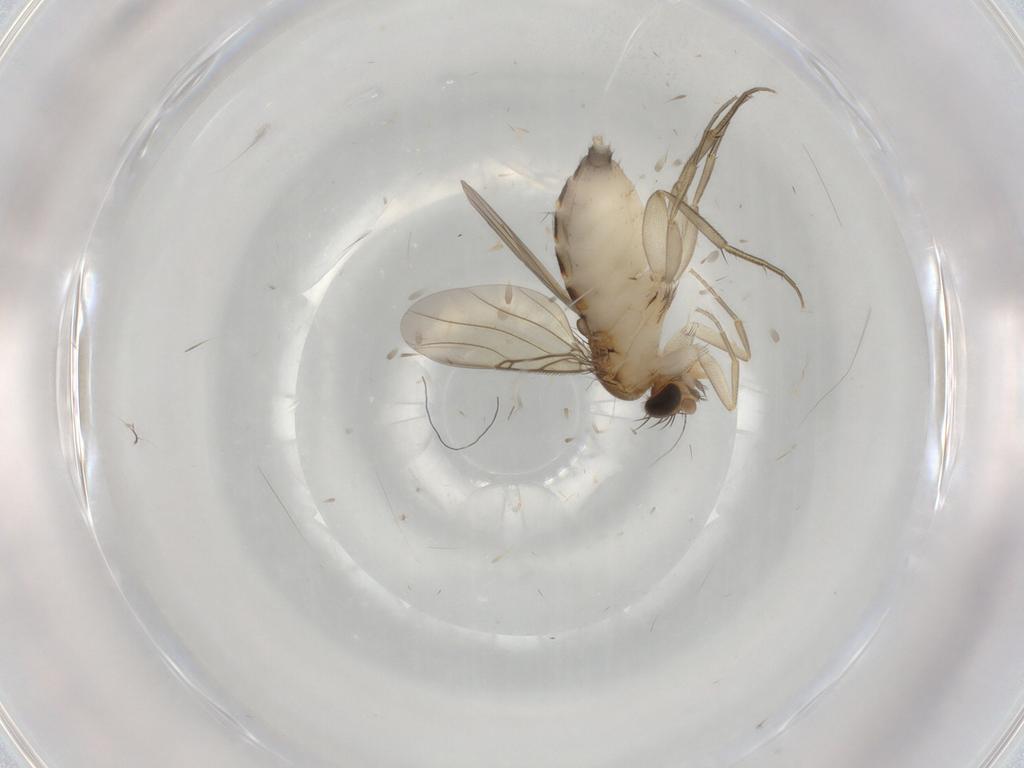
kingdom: Animalia
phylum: Arthropoda
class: Insecta
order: Diptera
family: Phoridae
